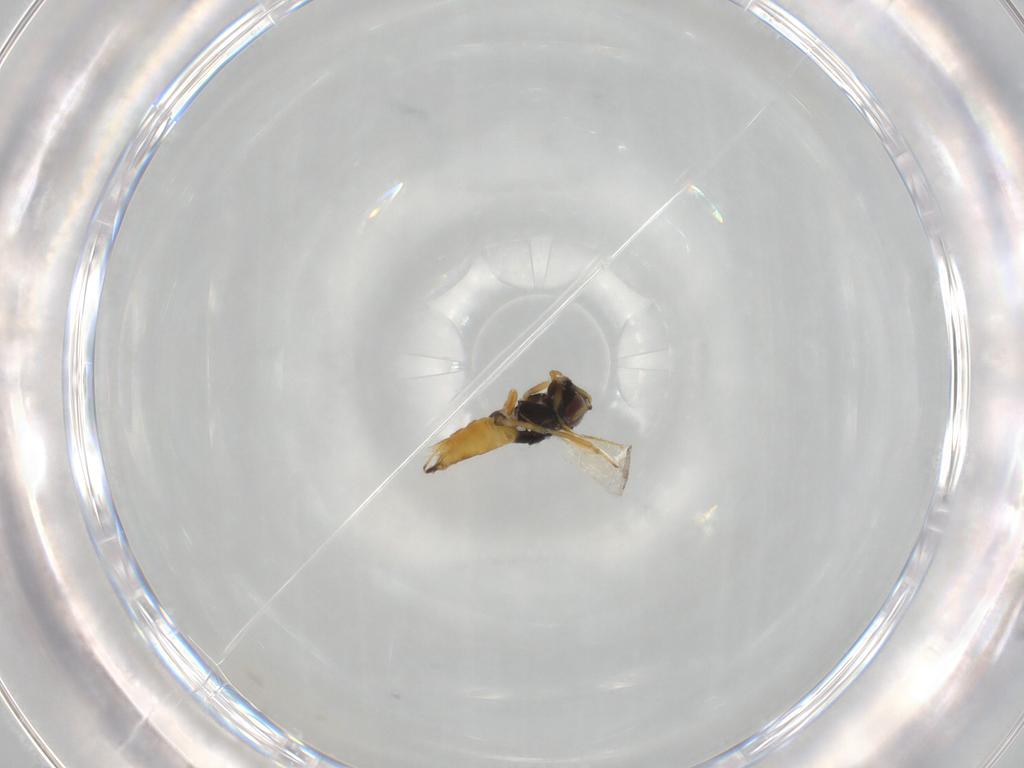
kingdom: Animalia
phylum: Arthropoda
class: Insecta
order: Hymenoptera
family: Aphelinidae
